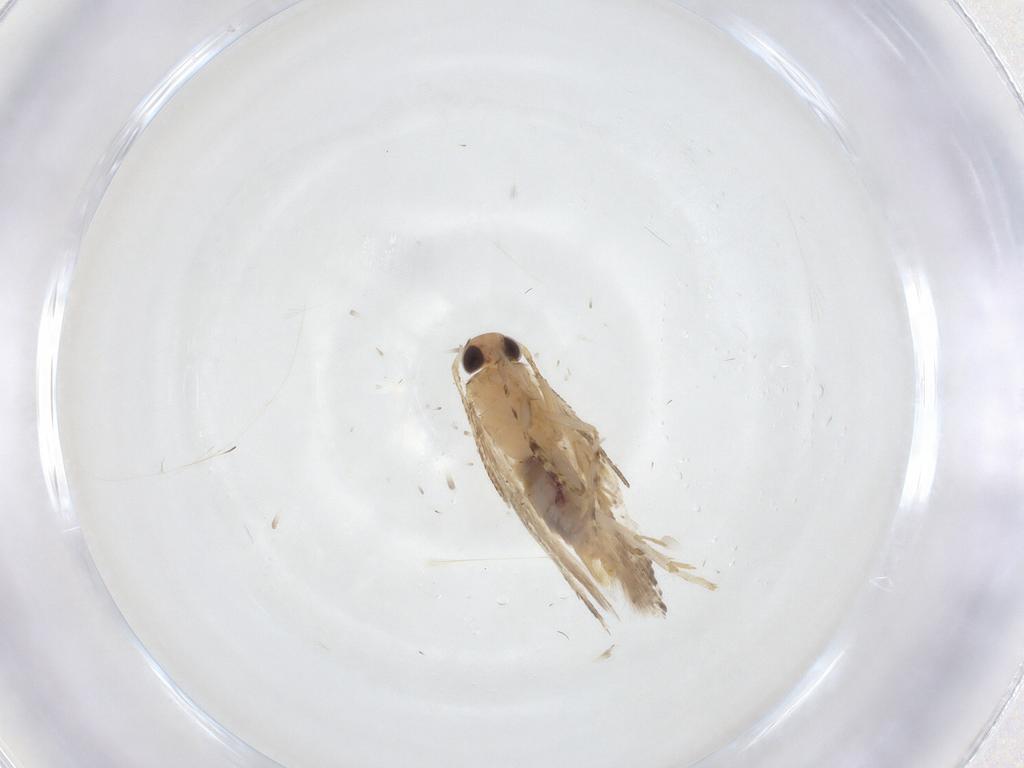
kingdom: Animalia
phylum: Arthropoda
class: Insecta
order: Lepidoptera
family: Gelechiidae
